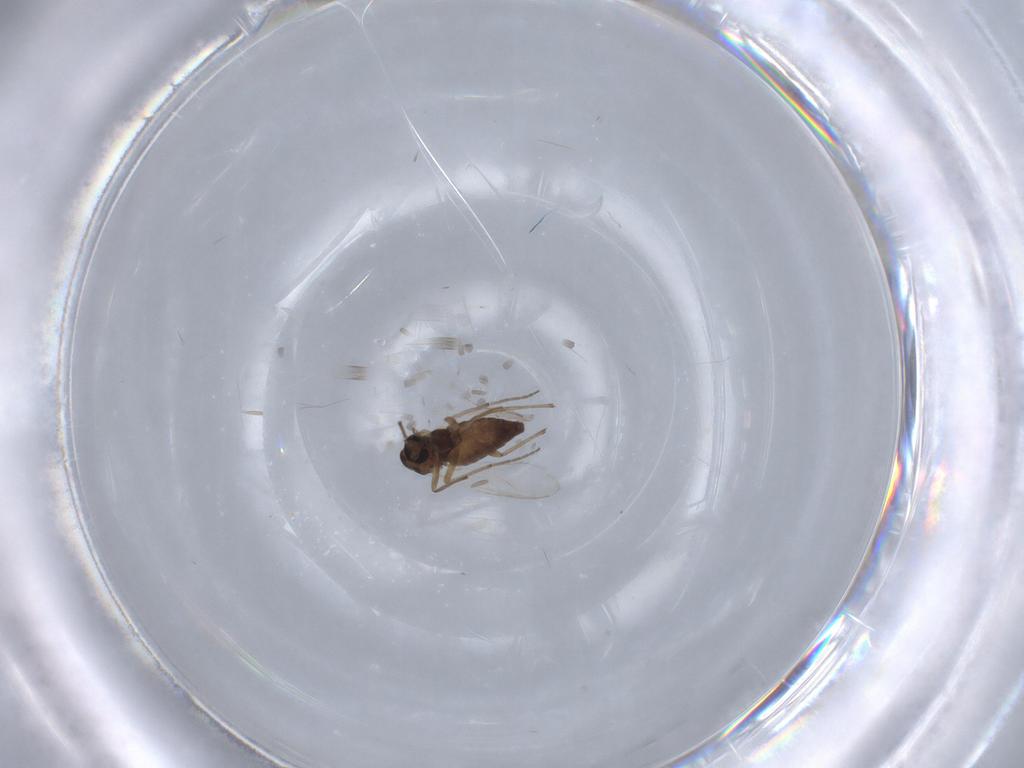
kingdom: Animalia
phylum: Arthropoda
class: Insecta
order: Diptera
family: Chironomidae
